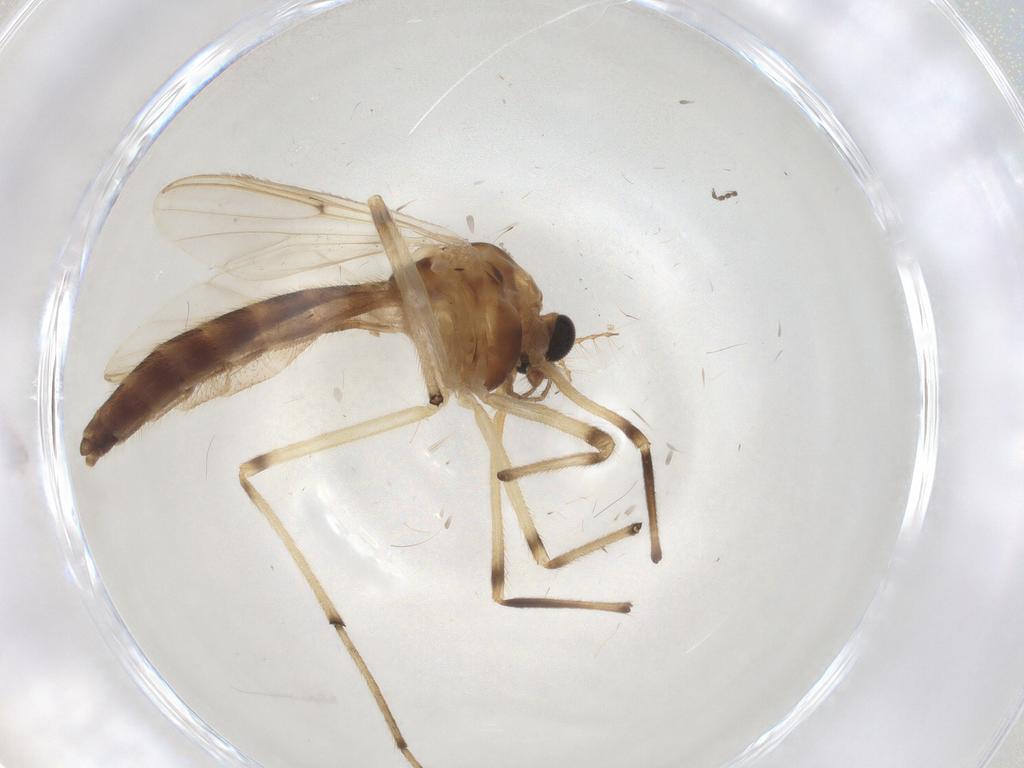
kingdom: Animalia
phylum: Arthropoda
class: Insecta
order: Diptera
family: Chironomidae
